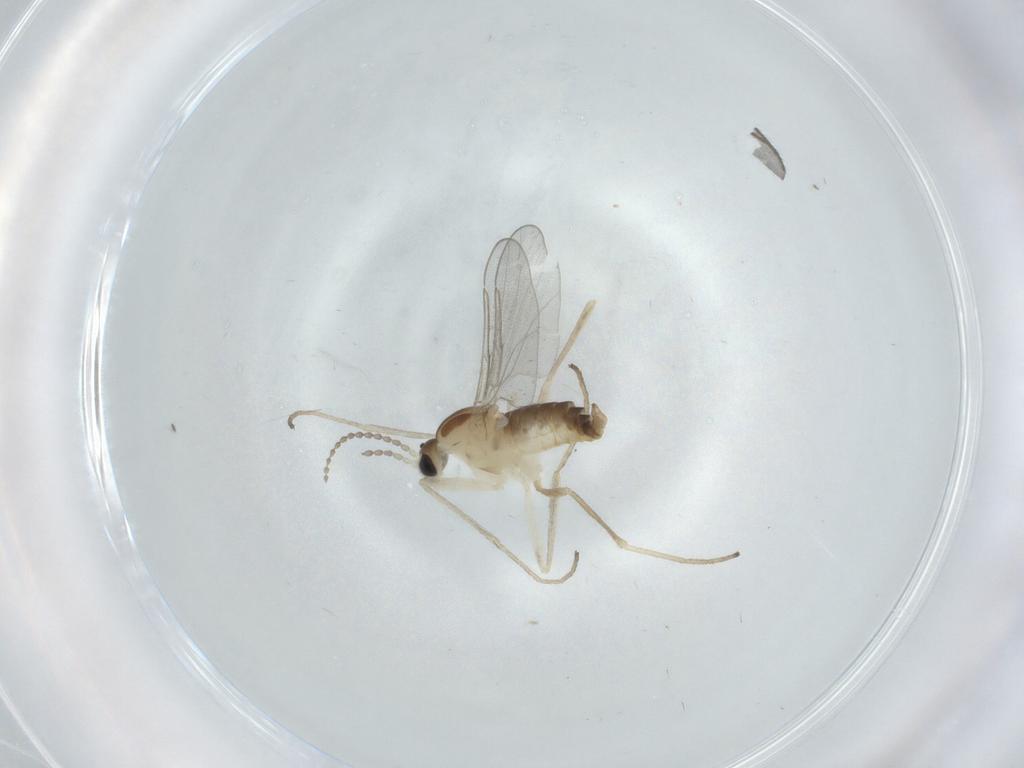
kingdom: Animalia
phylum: Arthropoda
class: Insecta
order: Diptera
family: Cecidomyiidae
